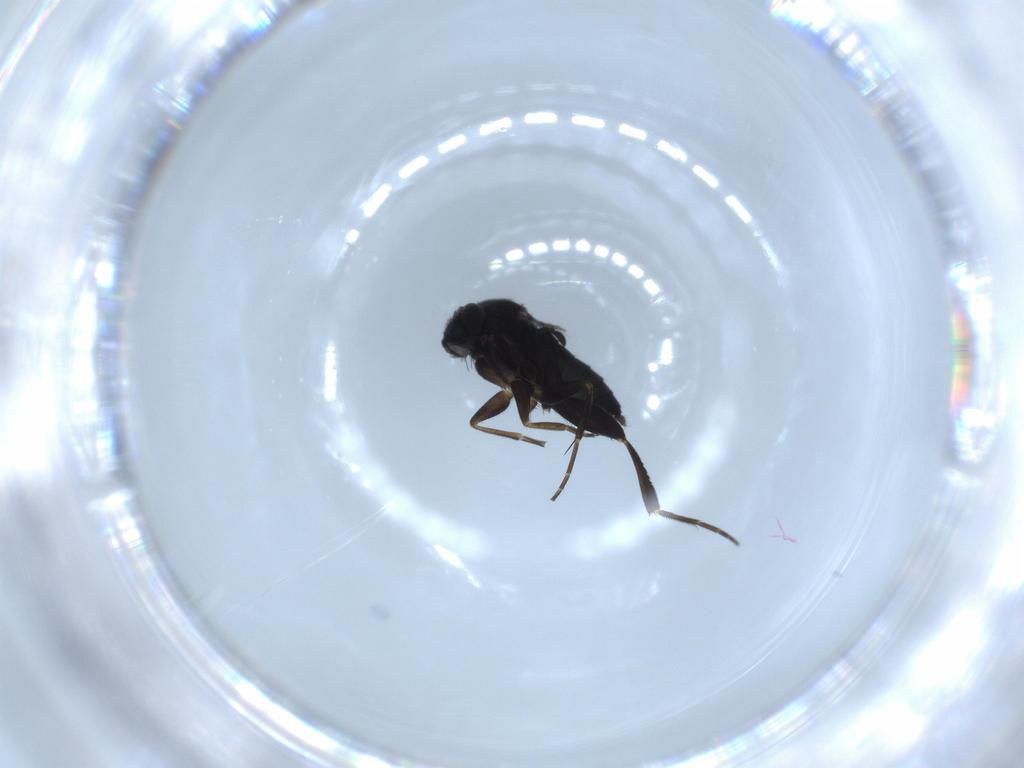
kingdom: Animalia
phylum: Arthropoda
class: Insecta
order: Diptera
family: Phoridae
